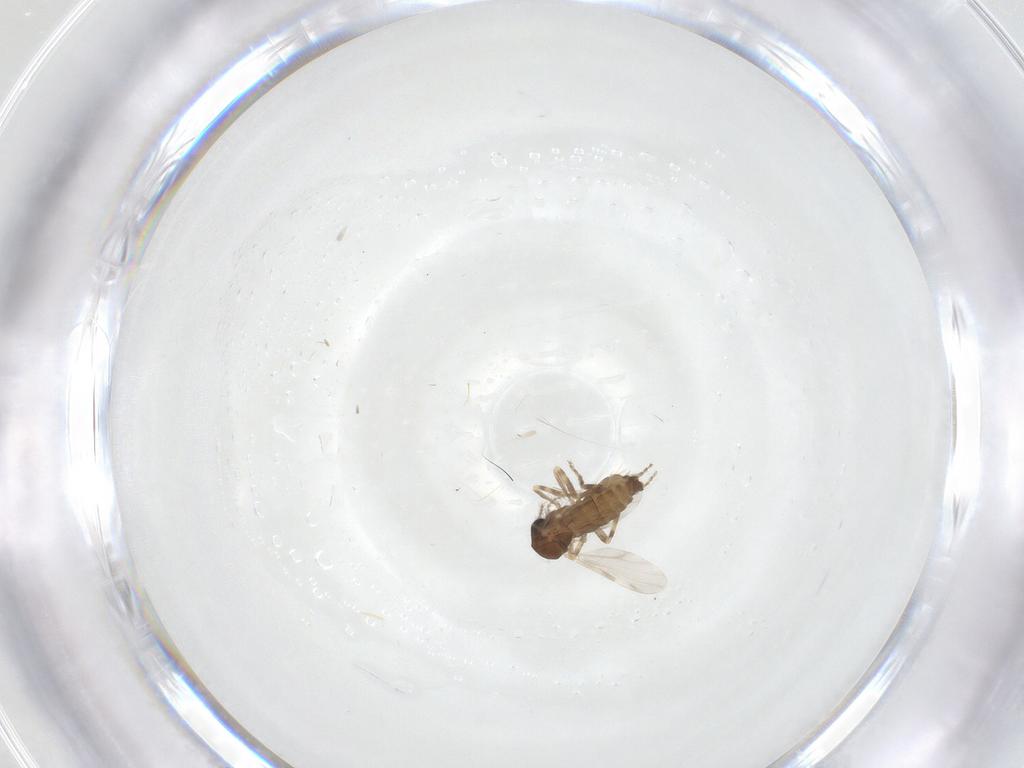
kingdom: Animalia
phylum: Arthropoda
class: Insecta
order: Diptera
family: Ceratopogonidae
